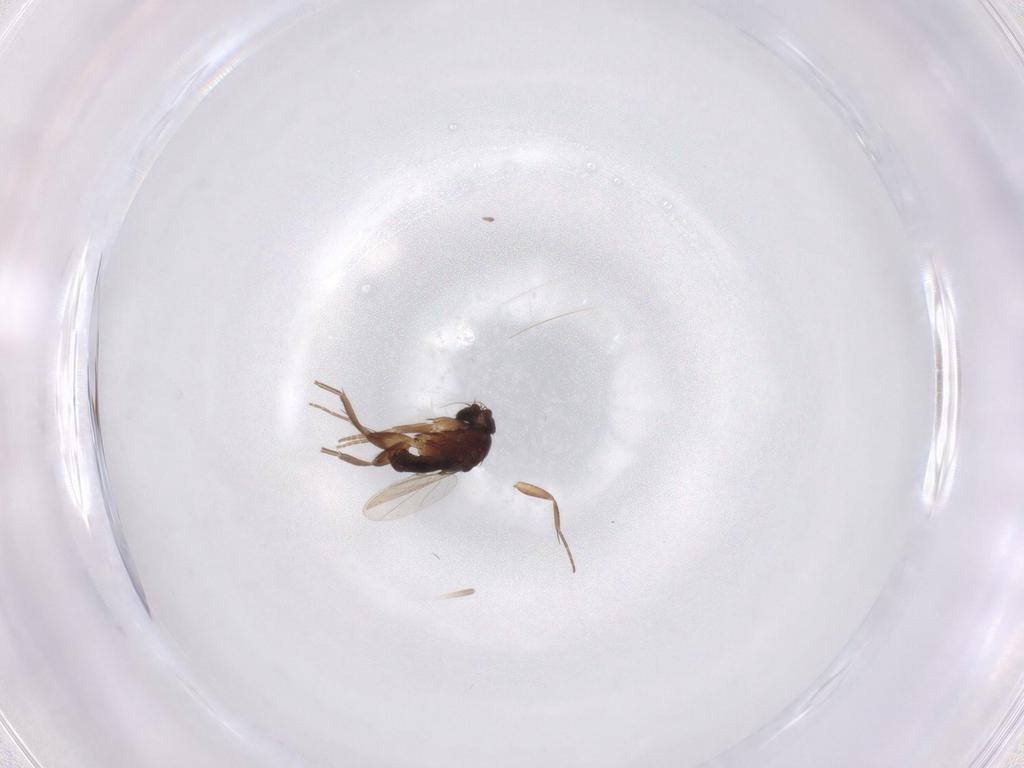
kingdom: Animalia
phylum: Arthropoda
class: Insecta
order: Diptera
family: Phoridae
